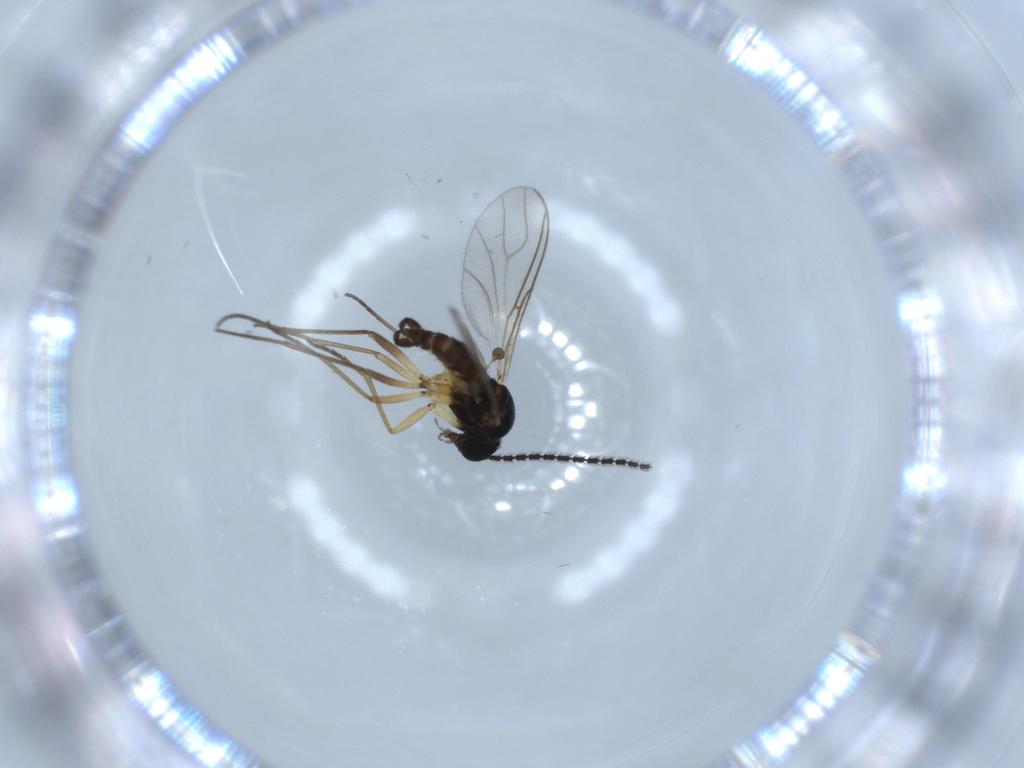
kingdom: Animalia
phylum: Arthropoda
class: Insecta
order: Diptera
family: Sciaridae
